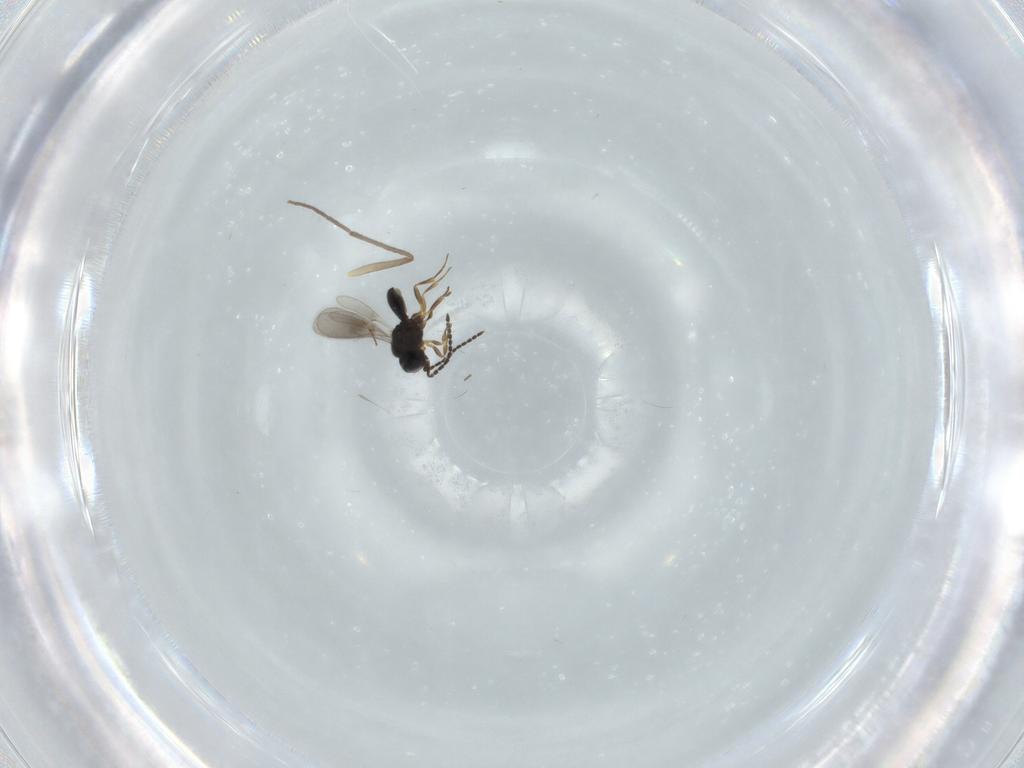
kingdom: Animalia
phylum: Arthropoda
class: Insecta
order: Hymenoptera
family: Scelionidae
